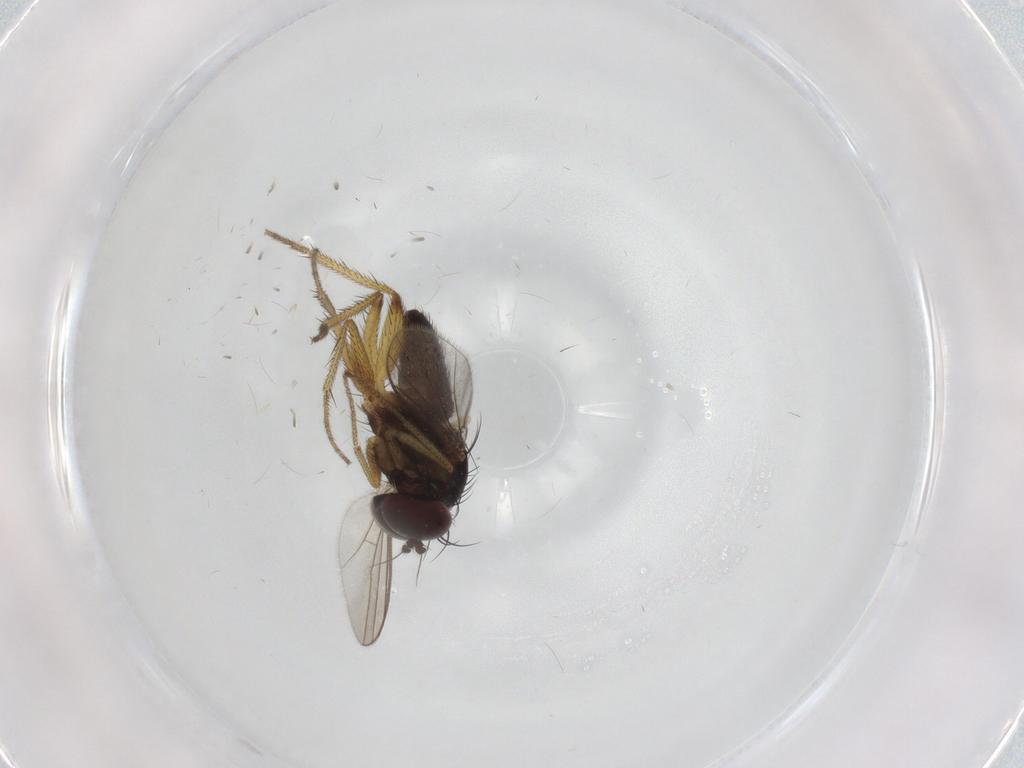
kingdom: Animalia
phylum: Arthropoda
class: Insecta
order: Diptera
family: Dolichopodidae
